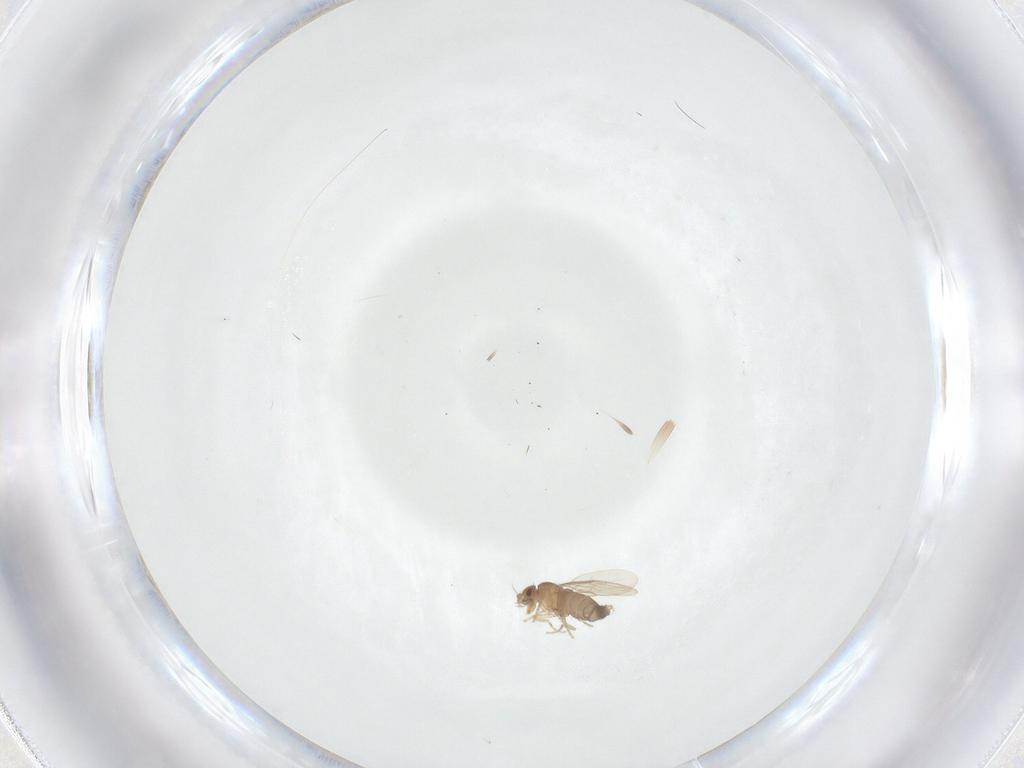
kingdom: Animalia
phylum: Arthropoda
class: Insecta
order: Diptera
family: Phoridae
